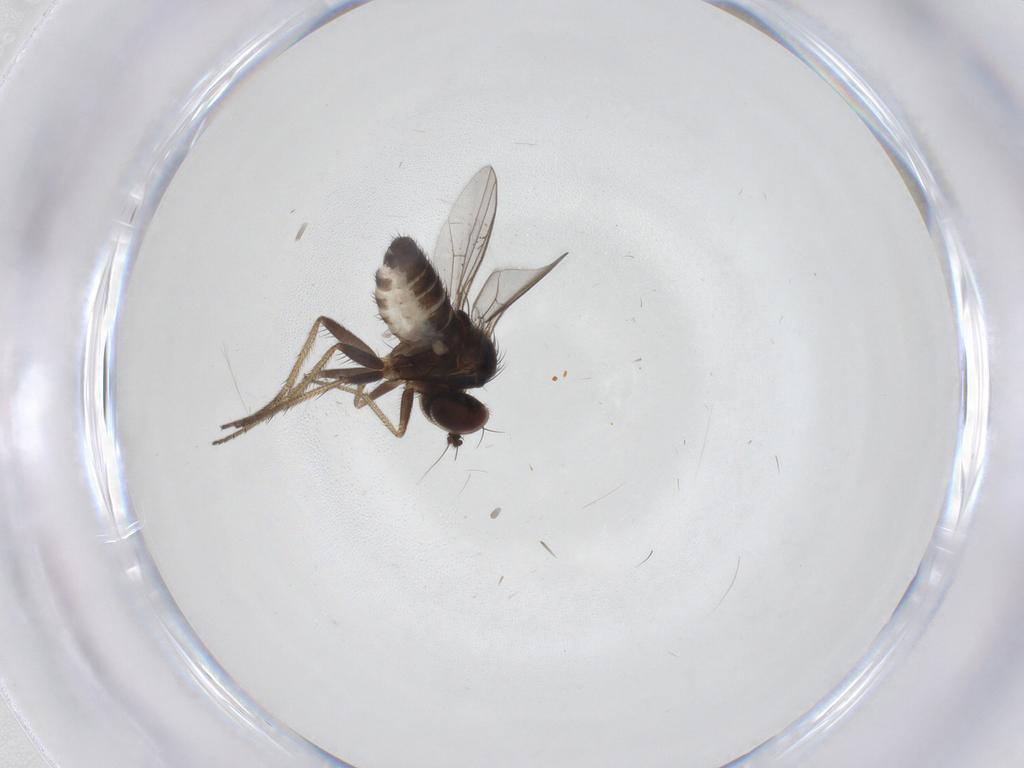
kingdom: Animalia
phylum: Arthropoda
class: Insecta
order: Diptera
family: Dolichopodidae
